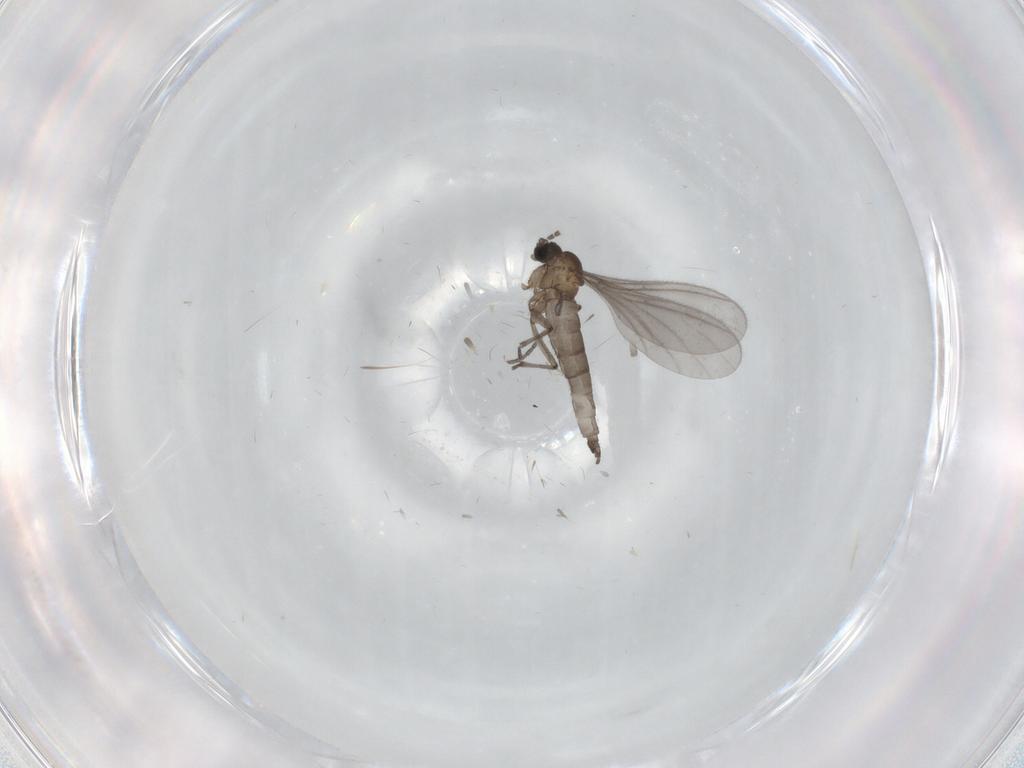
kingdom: Animalia
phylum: Arthropoda
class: Insecta
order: Diptera
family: Sciaridae
